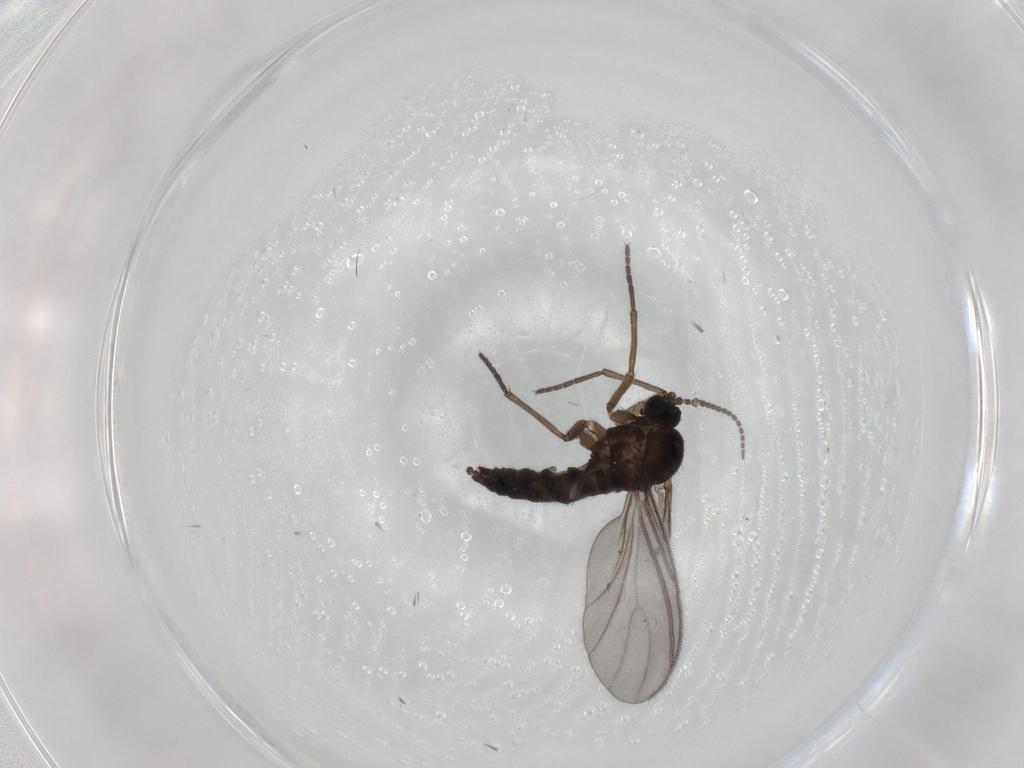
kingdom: Animalia
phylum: Arthropoda
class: Insecta
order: Diptera
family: Sciaridae
